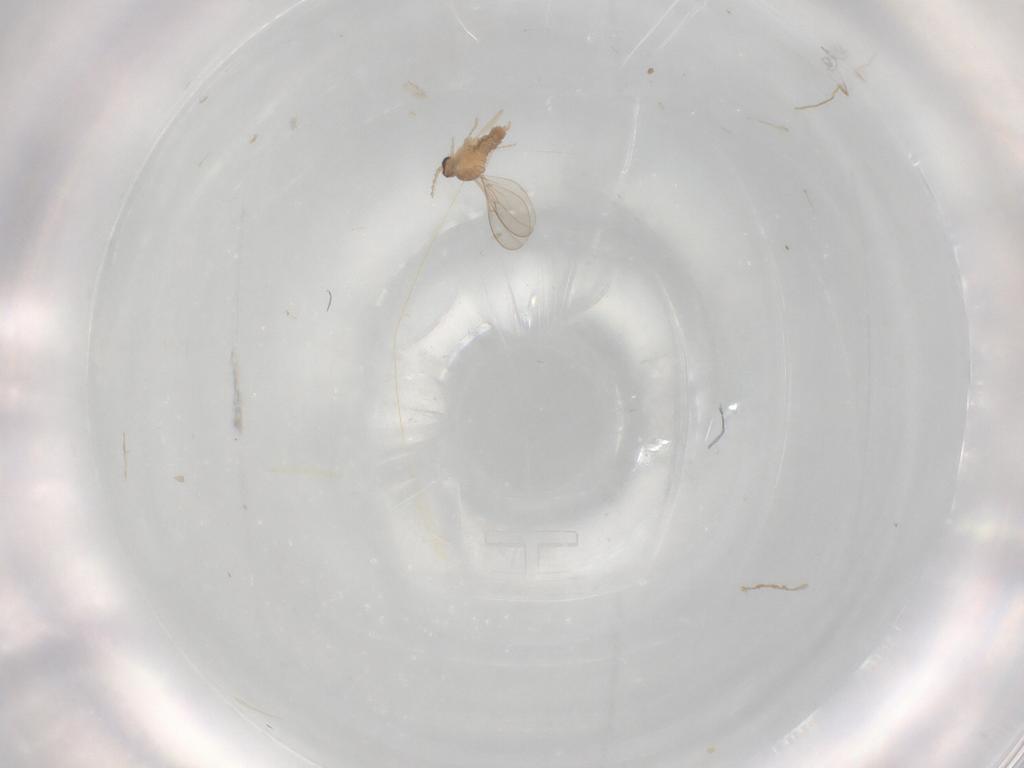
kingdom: Animalia
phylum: Arthropoda
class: Insecta
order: Diptera
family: Cecidomyiidae
